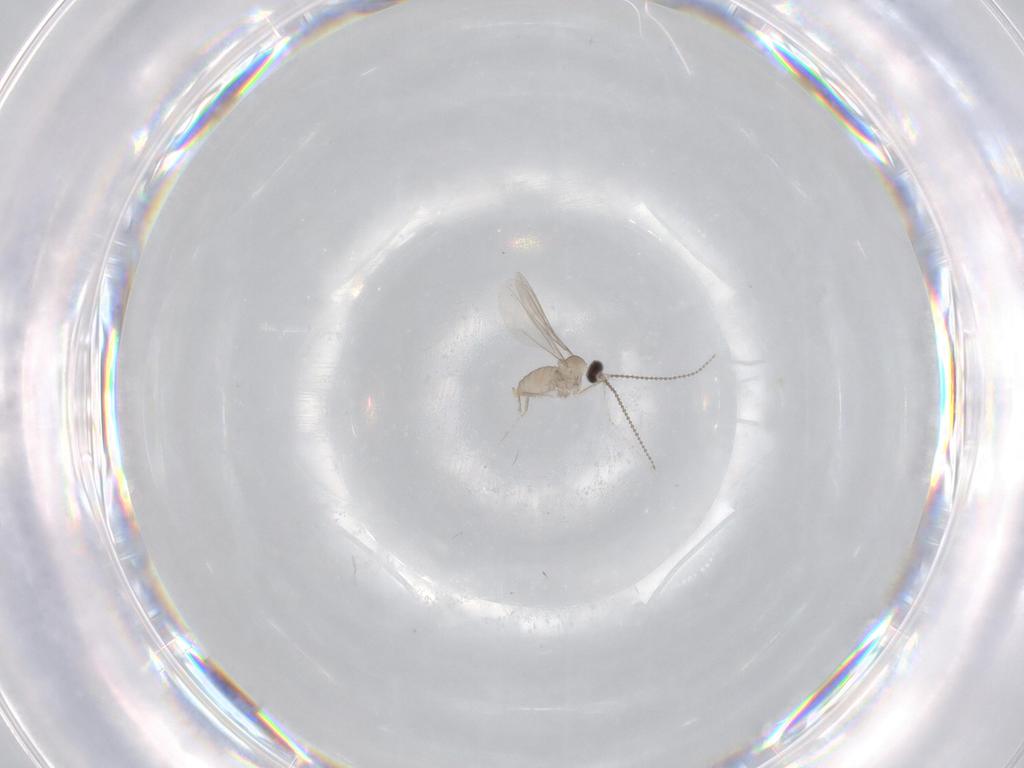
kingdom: Animalia
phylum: Arthropoda
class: Insecta
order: Diptera
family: Cecidomyiidae
